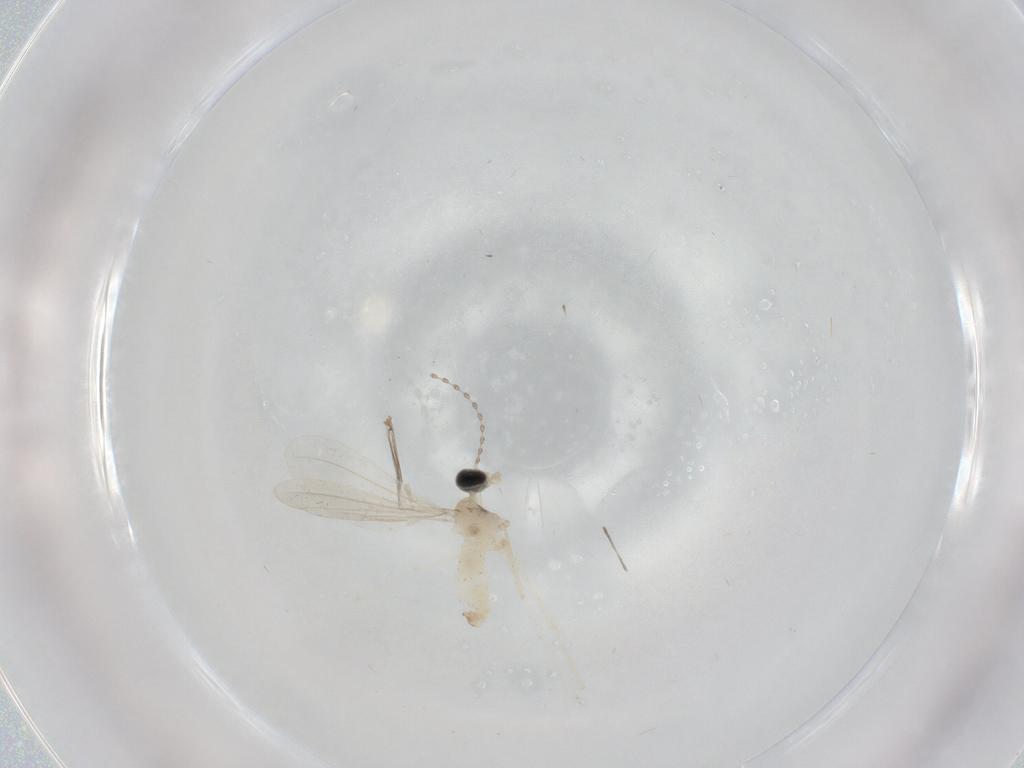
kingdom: Animalia
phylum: Arthropoda
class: Insecta
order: Diptera
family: Cecidomyiidae
